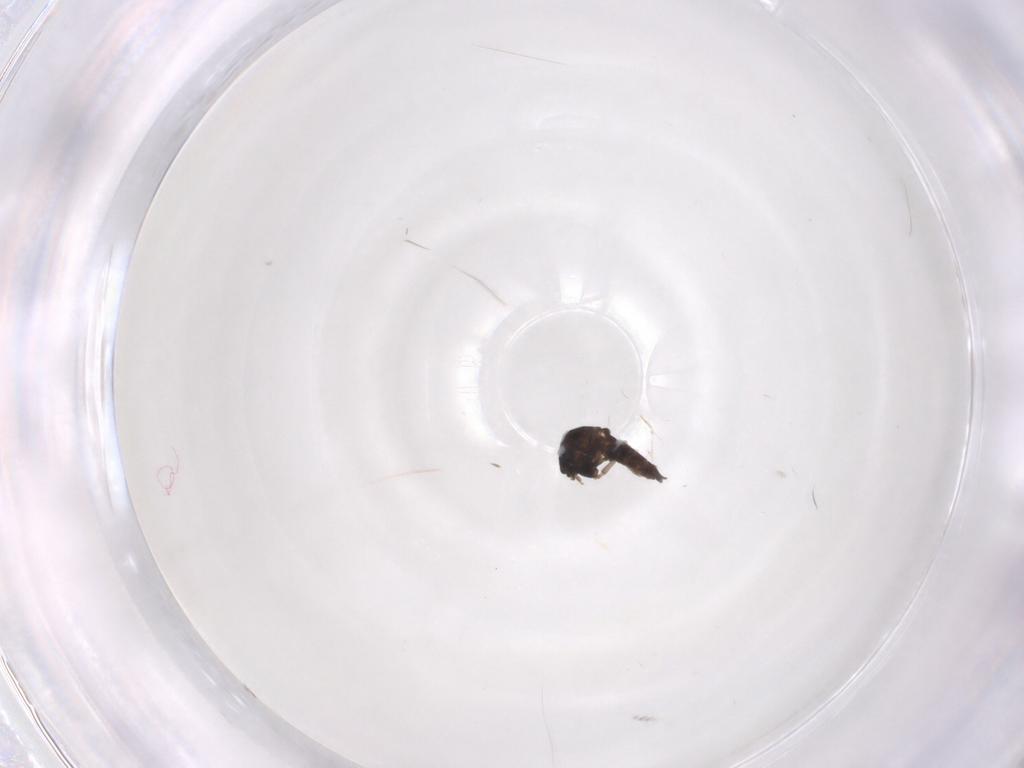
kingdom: Animalia
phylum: Arthropoda
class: Insecta
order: Diptera
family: Chironomidae
